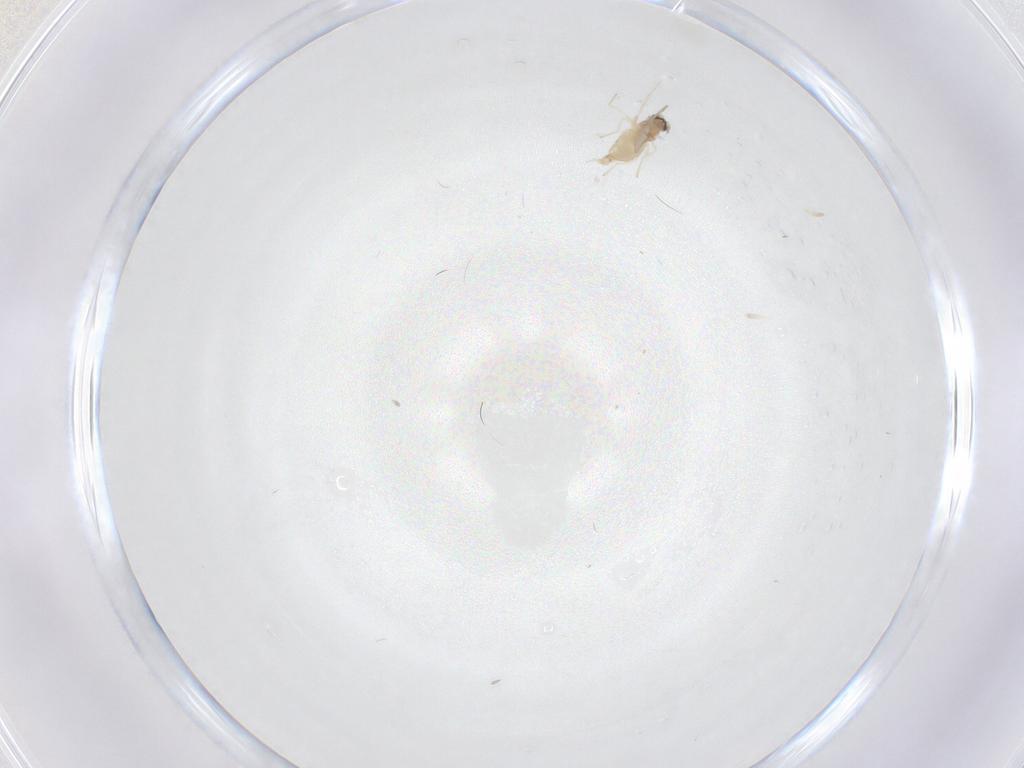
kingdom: Animalia
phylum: Arthropoda
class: Insecta
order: Diptera
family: Cecidomyiidae
